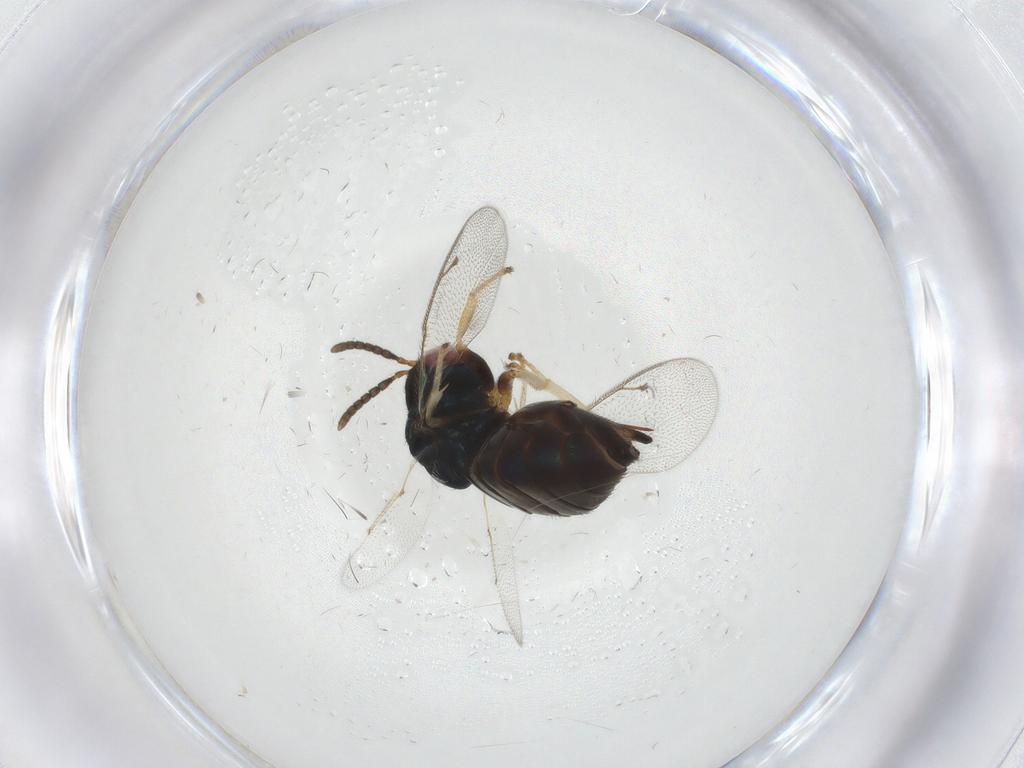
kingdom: Animalia
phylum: Arthropoda
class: Insecta
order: Hymenoptera
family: Pteromalidae
